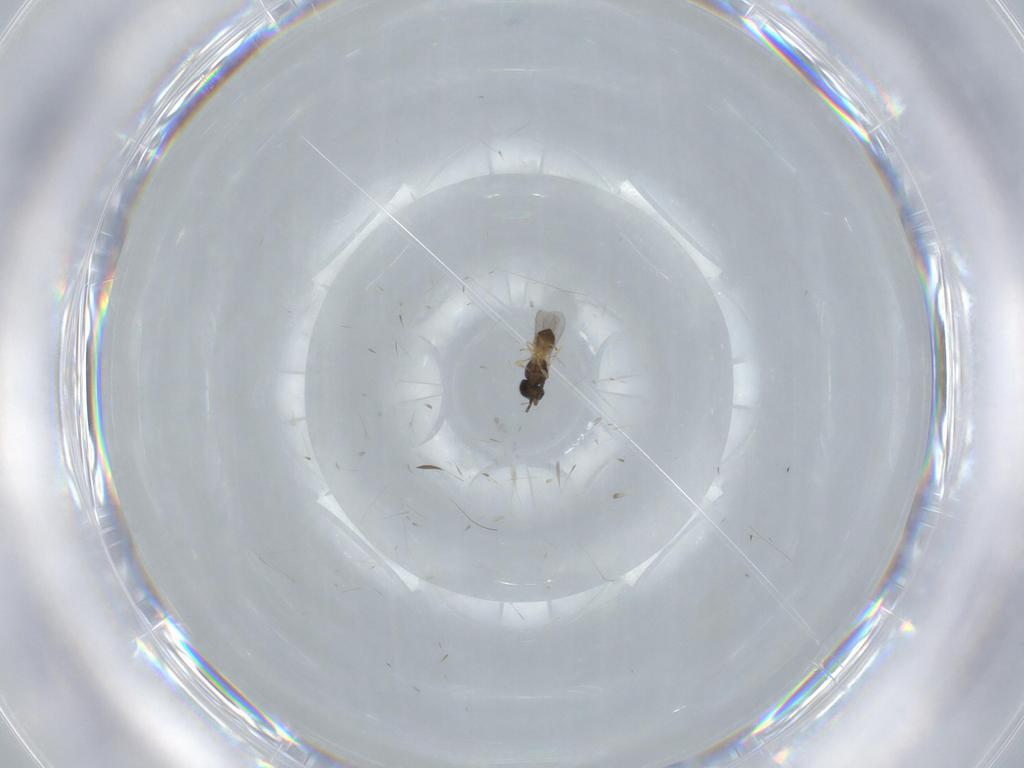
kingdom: Animalia
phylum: Arthropoda
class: Insecta
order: Hymenoptera
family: Scelionidae
